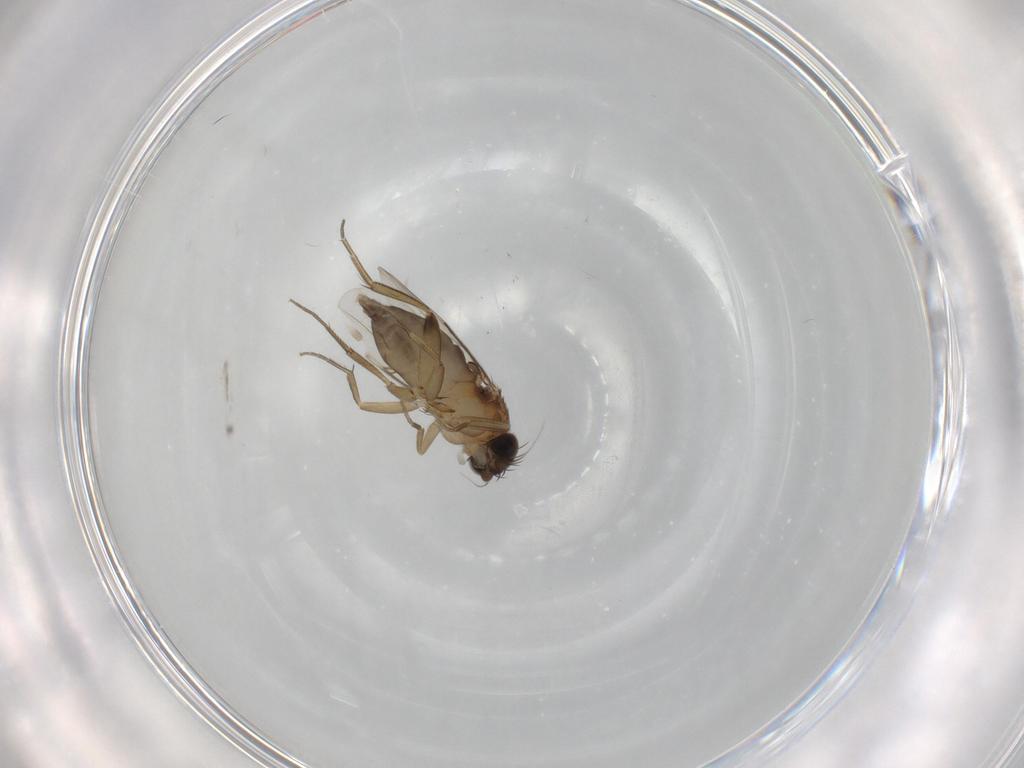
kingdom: Animalia
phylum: Arthropoda
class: Insecta
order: Diptera
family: Phoridae
